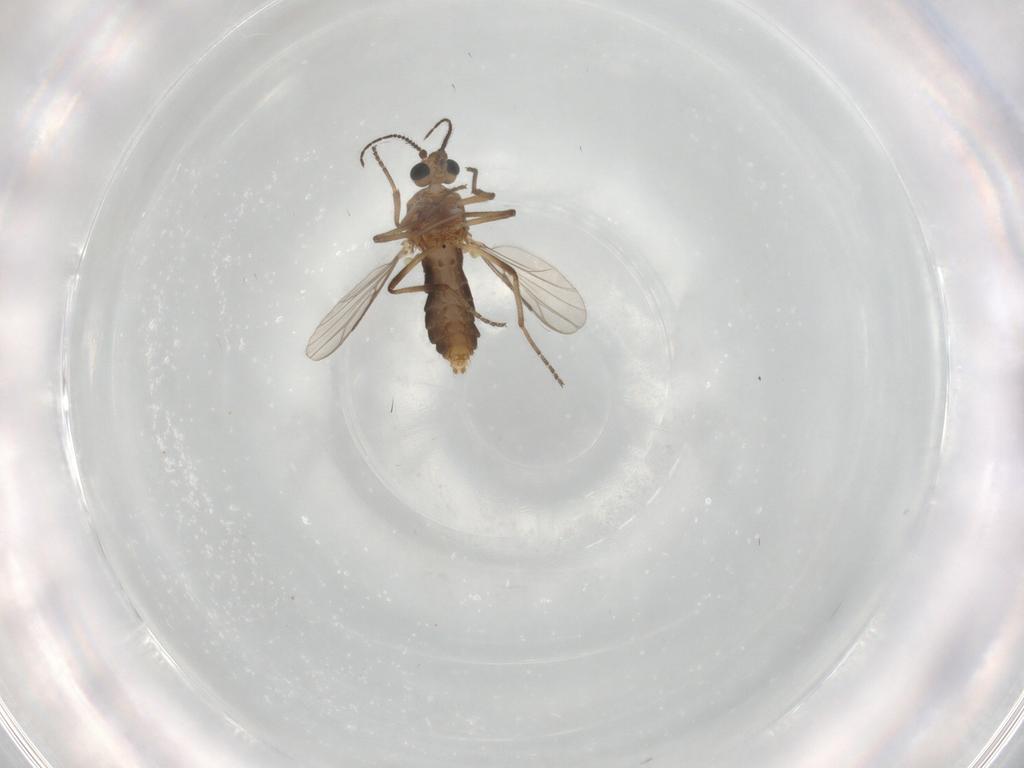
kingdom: Animalia
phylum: Arthropoda
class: Insecta
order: Diptera
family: Ceratopogonidae
